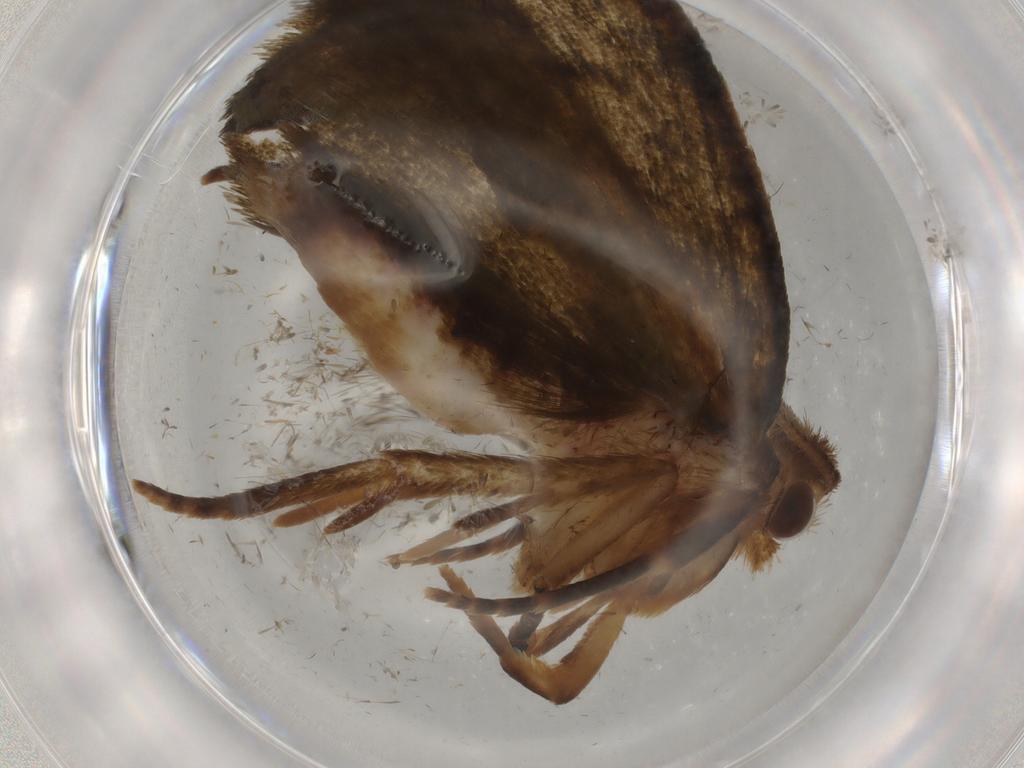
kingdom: Animalia
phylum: Arthropoda
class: Insecta
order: Lepidoptera
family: Geometridae
